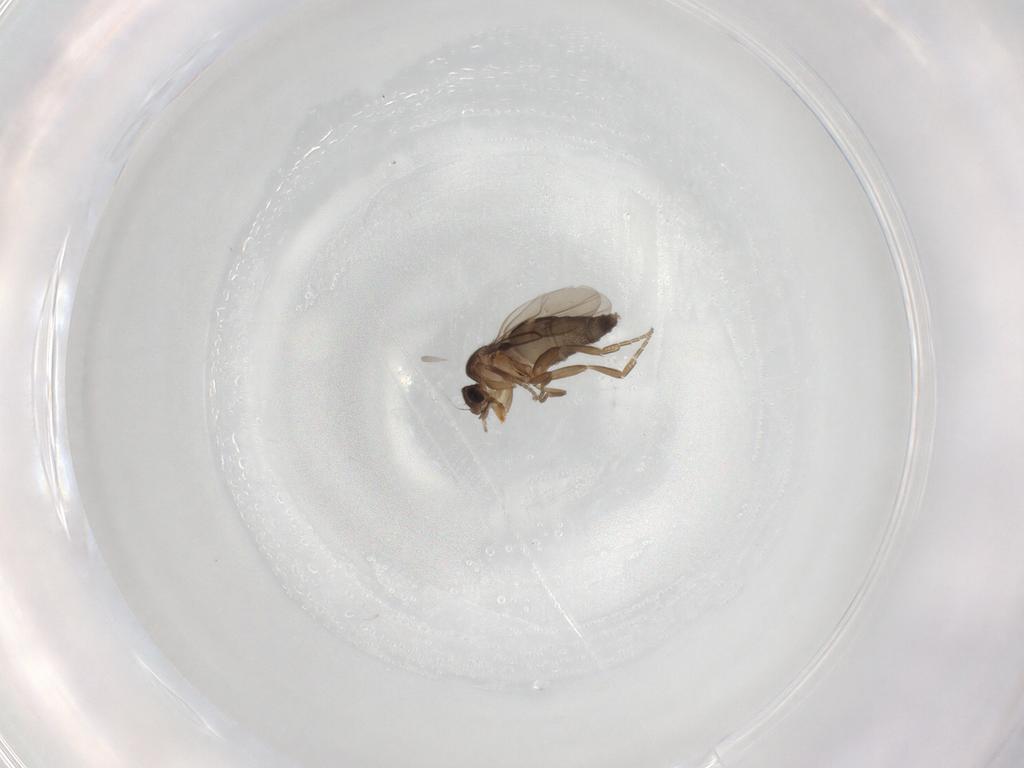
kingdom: Animalia
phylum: Arthropoda
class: Insecta
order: Diptera
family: Phoridae
